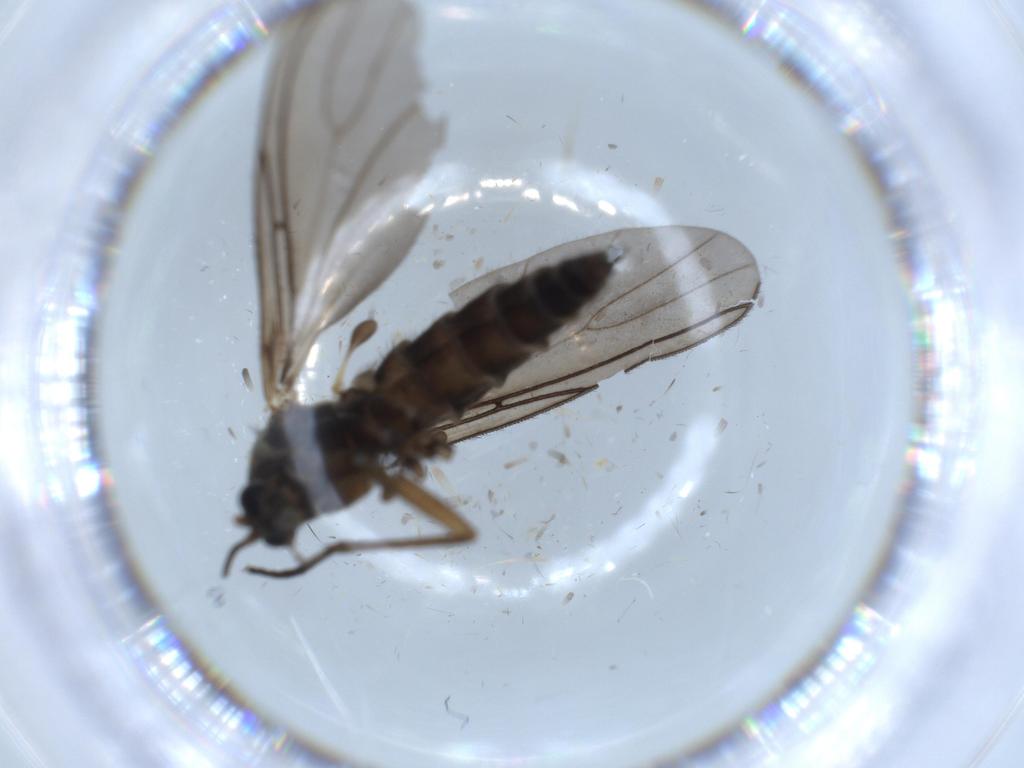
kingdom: Animalia
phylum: Arthropoda
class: Insecta
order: Diptera
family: Sciaridae
